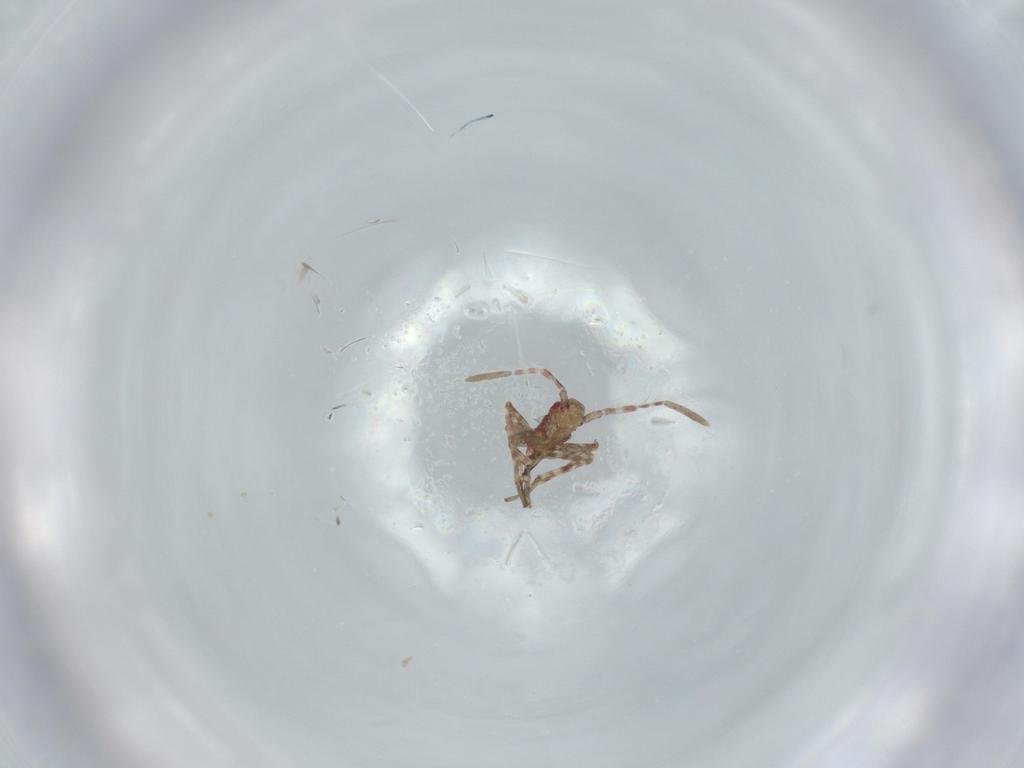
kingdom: Animalia
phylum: Arthropoda
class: Insecta
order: Hemiptera
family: Miridae
